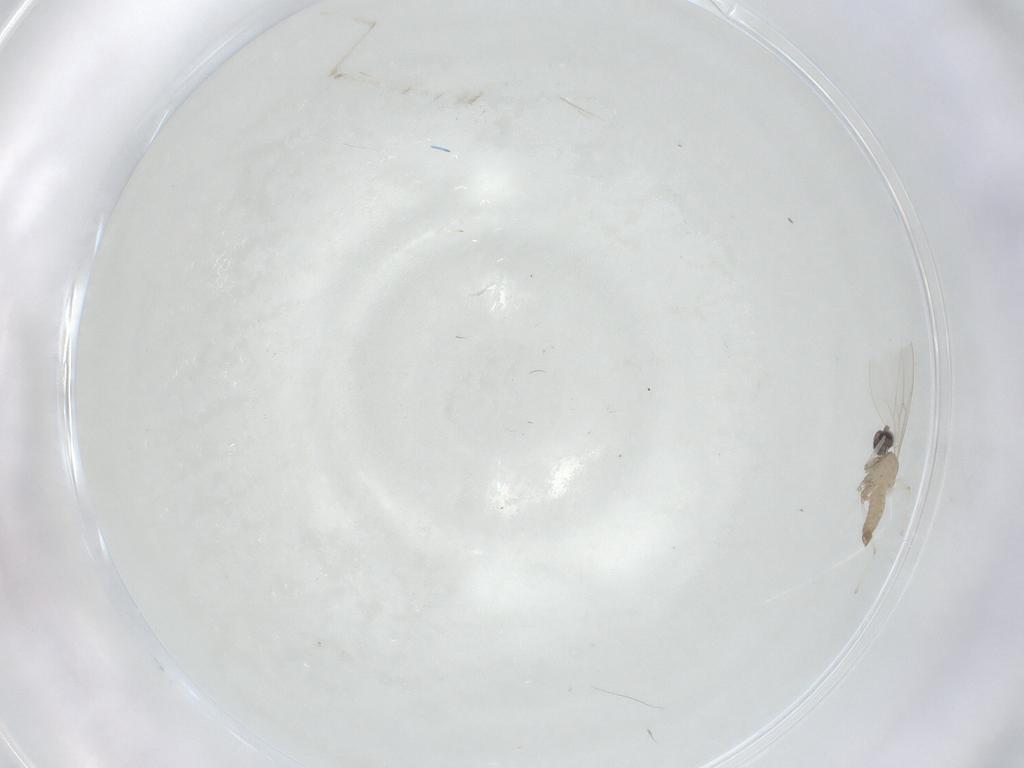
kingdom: Animalia
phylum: Arthropoda
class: Insecta
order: Diptera
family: Cecidomyiidae
